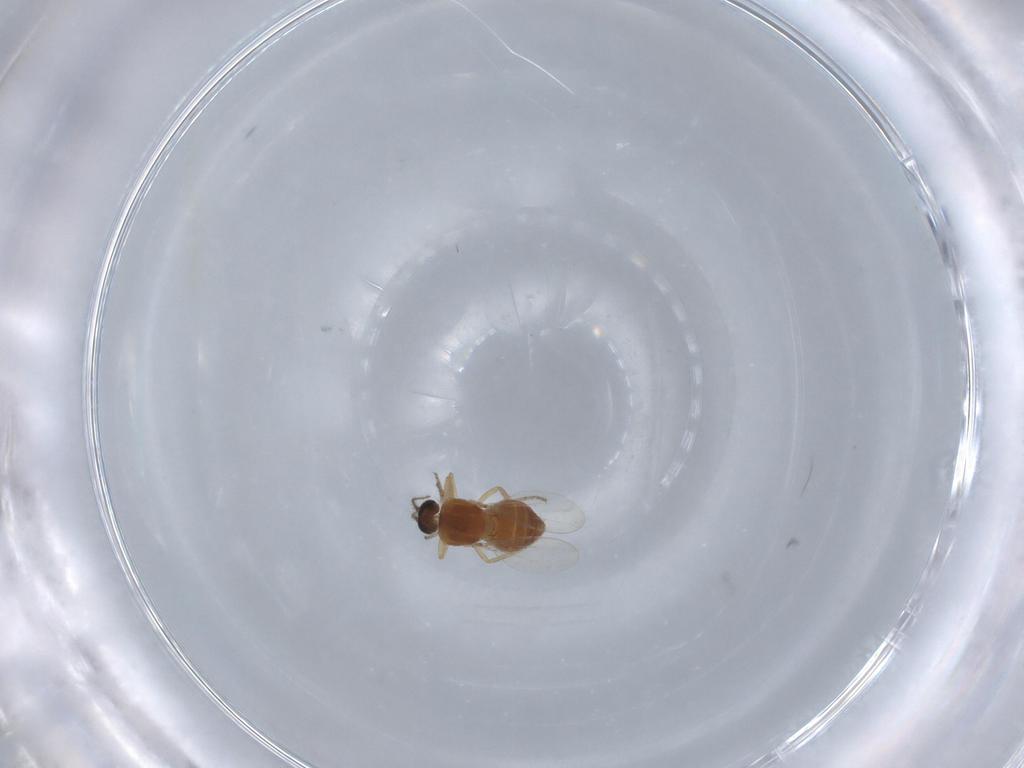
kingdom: Animalia
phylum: Arthropoda
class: Insecta
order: Diptera
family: Ceratopogonidae
